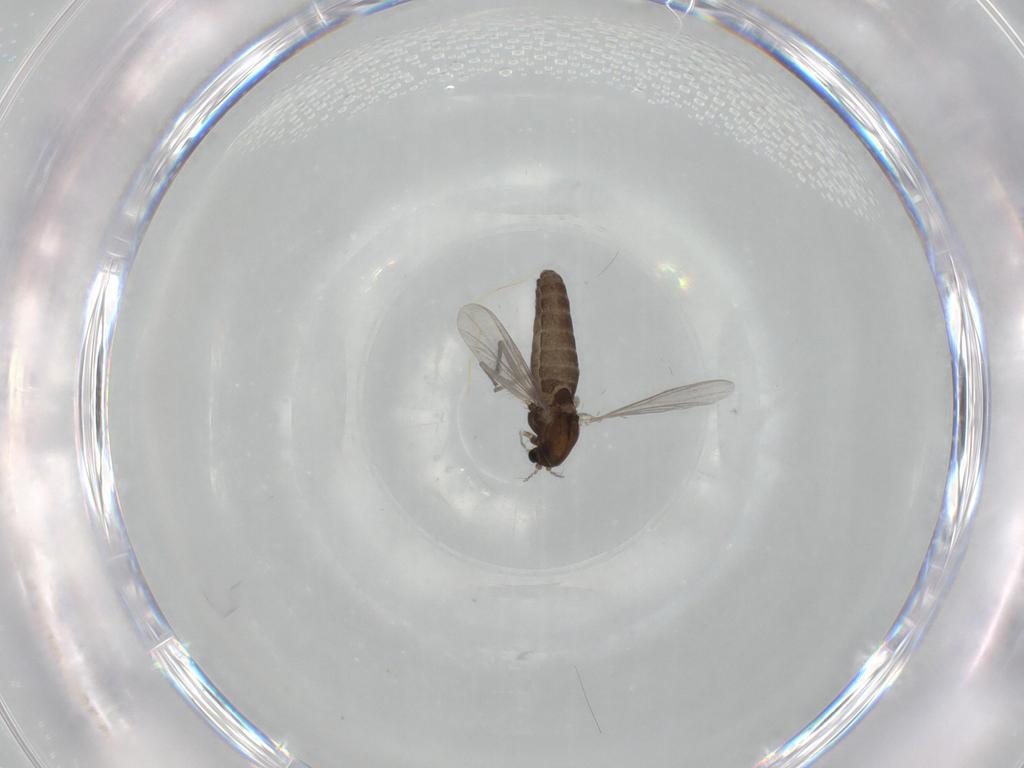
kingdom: Animalia
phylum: Arthropoda
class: Insecta
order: Diptera
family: Chironomidae
